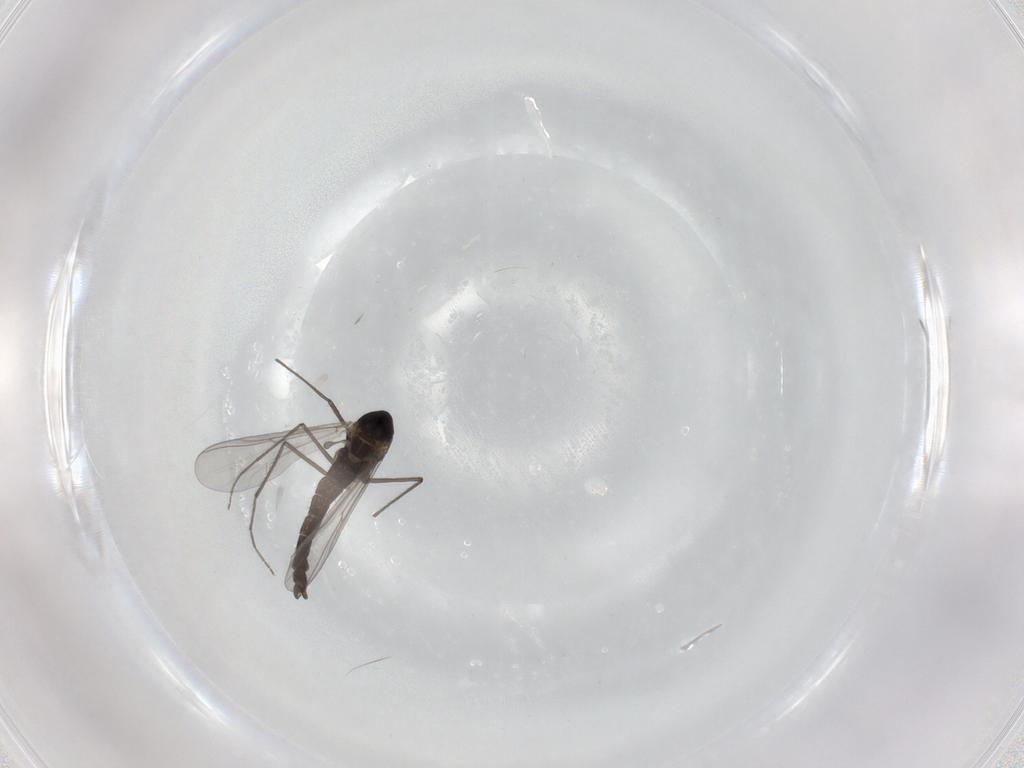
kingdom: Animalia
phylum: Arthropoda
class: Insecta
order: Diptera
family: Chironomidae
